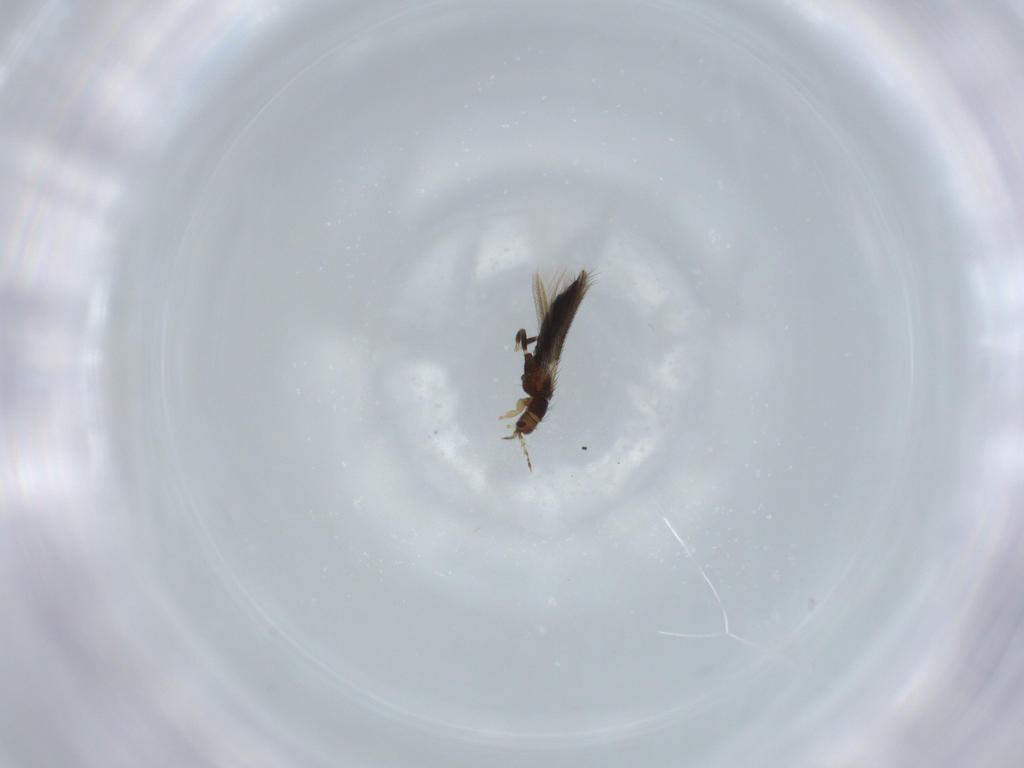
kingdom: Animalia
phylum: Arthropoda
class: Insecta
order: Thysanoptera
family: Thripidae
